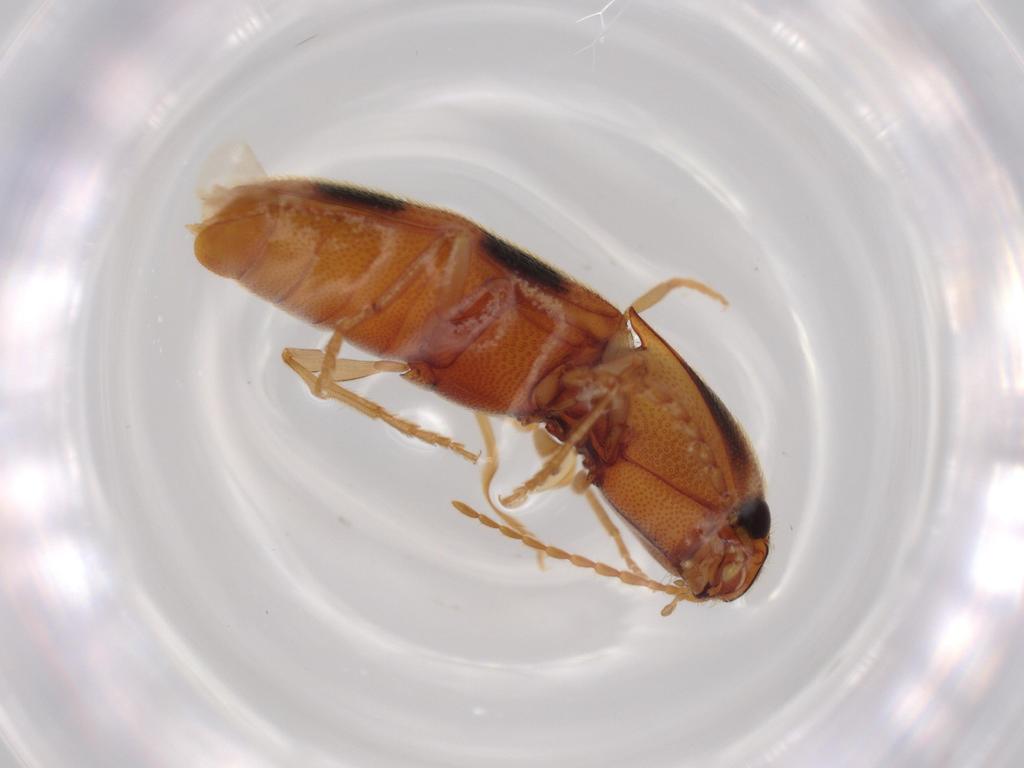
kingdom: Animalia
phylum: Arthropoda
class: Insecta
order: Coleoptera
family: Elateridae
